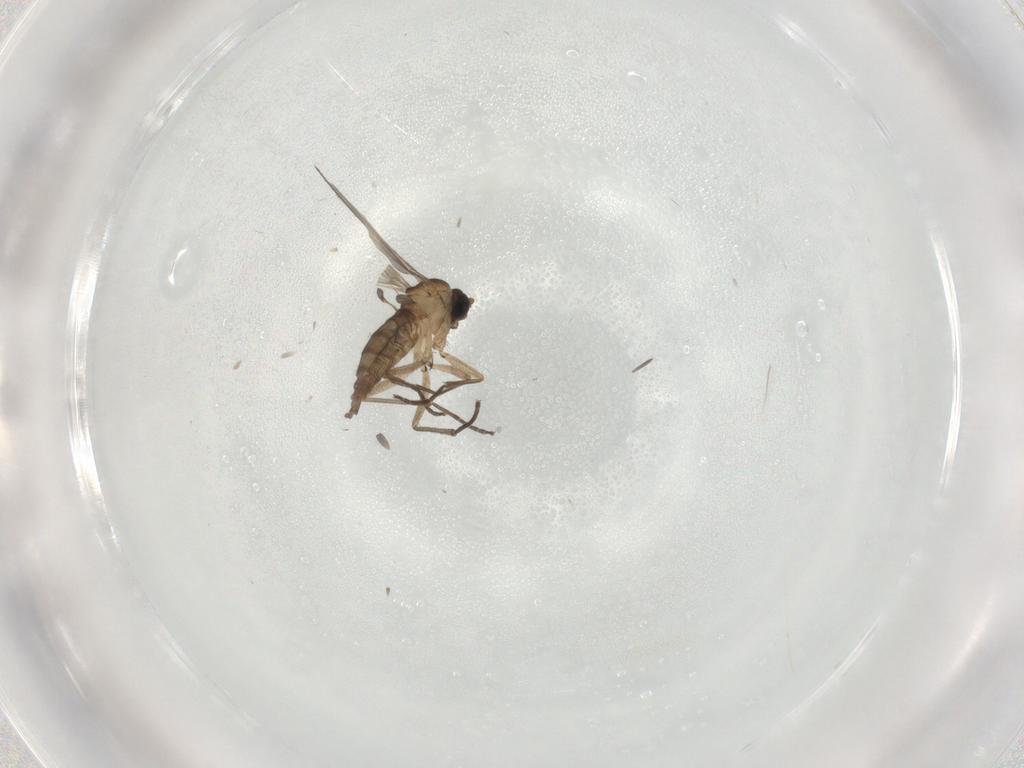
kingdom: Animalia
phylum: Arthropoda
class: Insecta
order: Diptera
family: Sciaridae
